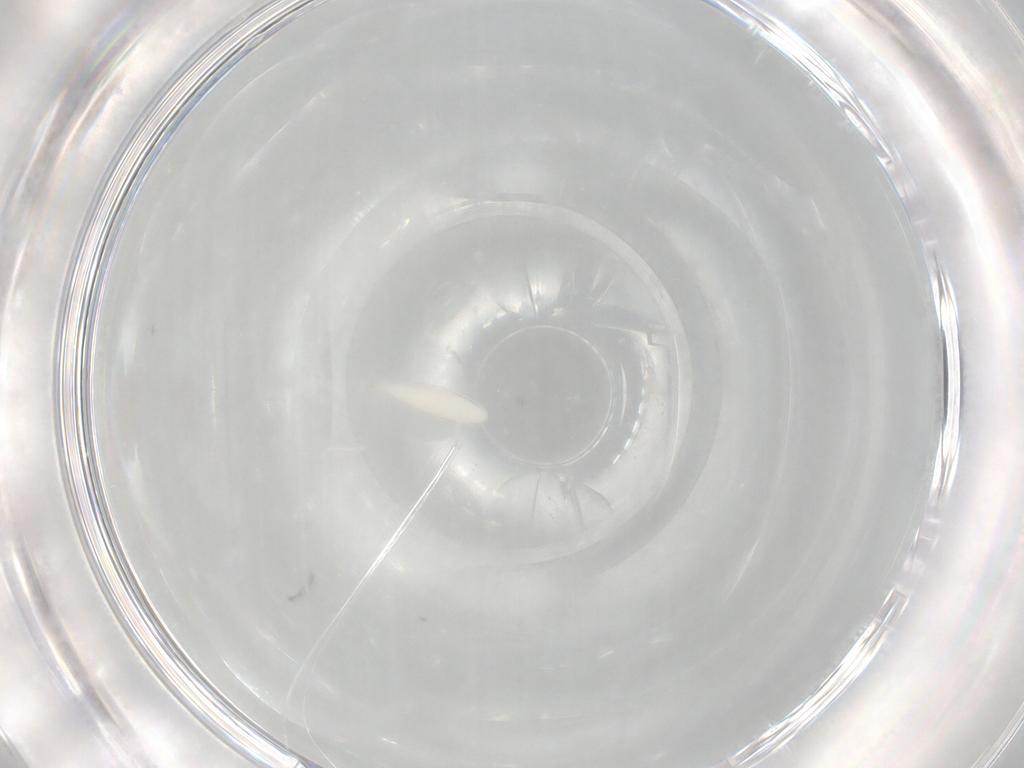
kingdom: Animalia
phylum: Arthropoda
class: Insecta
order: Diptera
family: Stratiomyidae
